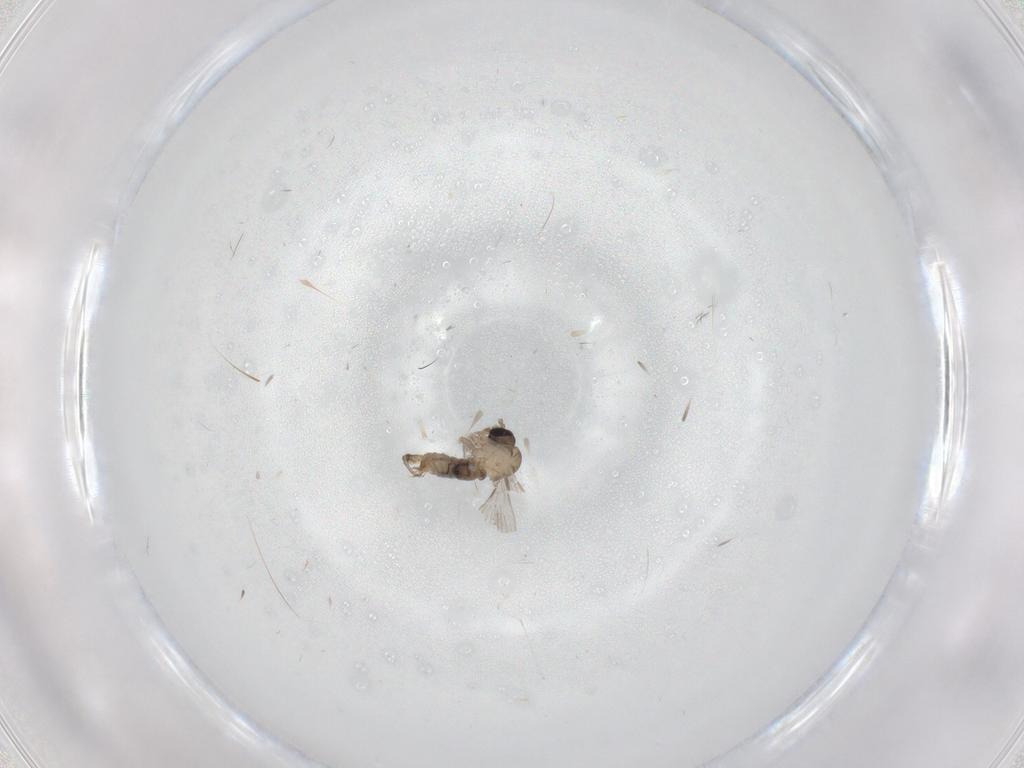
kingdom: Animalia
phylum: Arthropoda
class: Insecta
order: Diptera
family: Psychodidae
